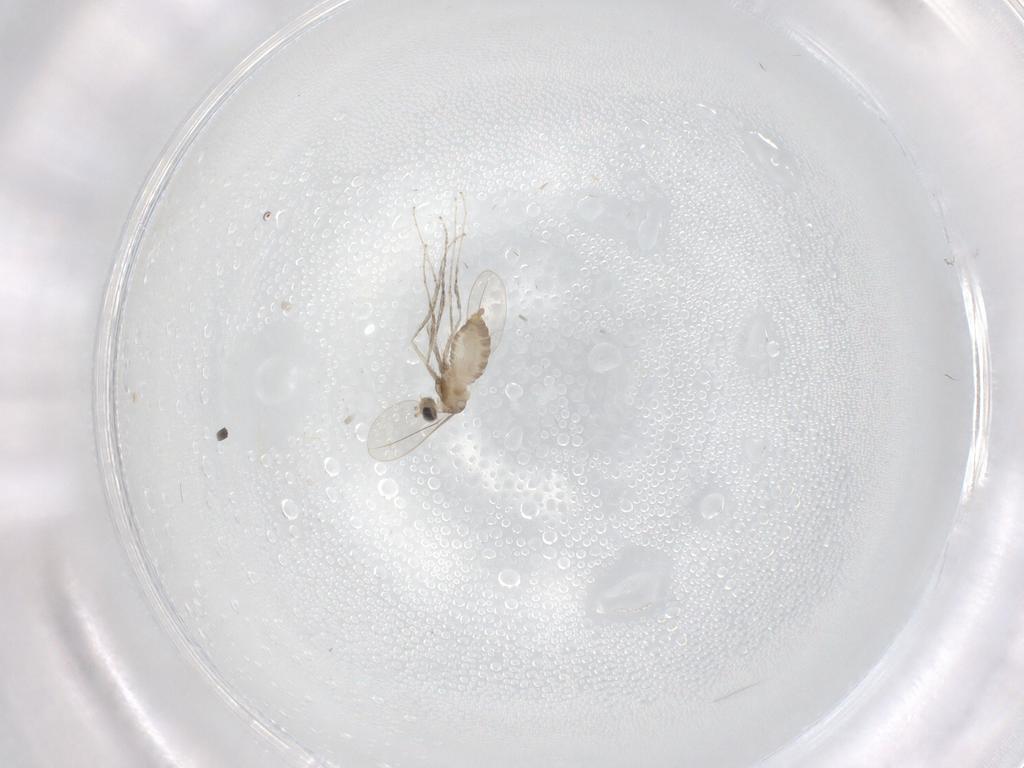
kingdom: Animalia
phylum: Arthropoda
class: Insecta
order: Diptera
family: Cecidomyiidae
